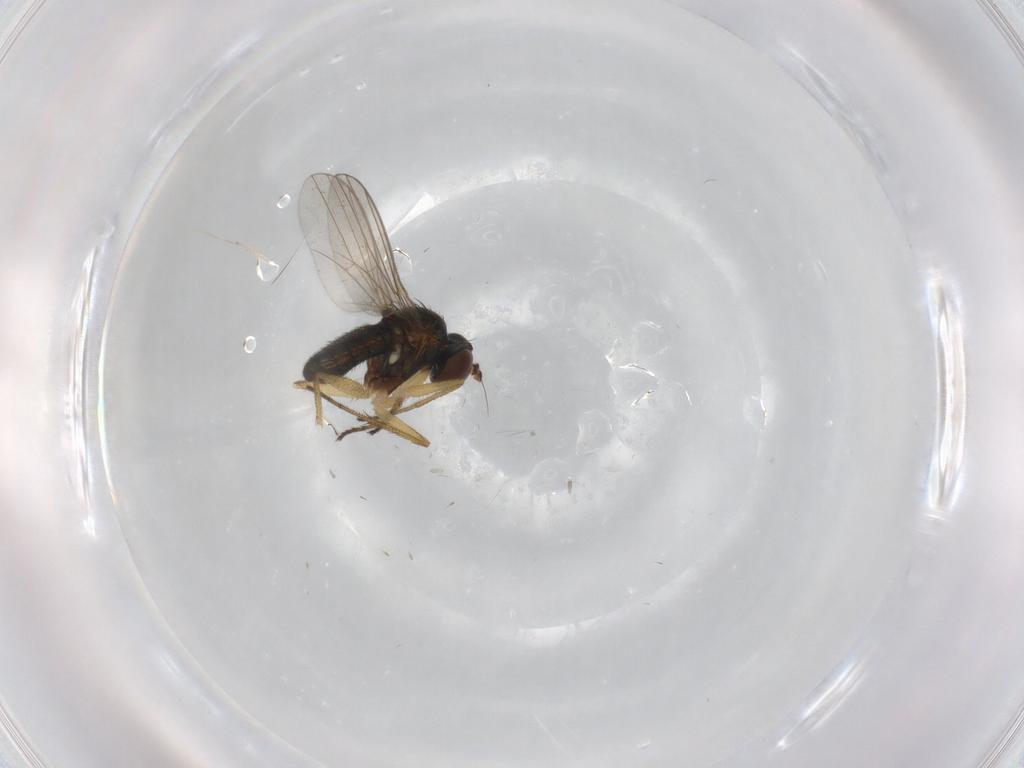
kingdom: Animalia
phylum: Arthropoda
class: Insecta
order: Diptera
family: Dolichopodidae
